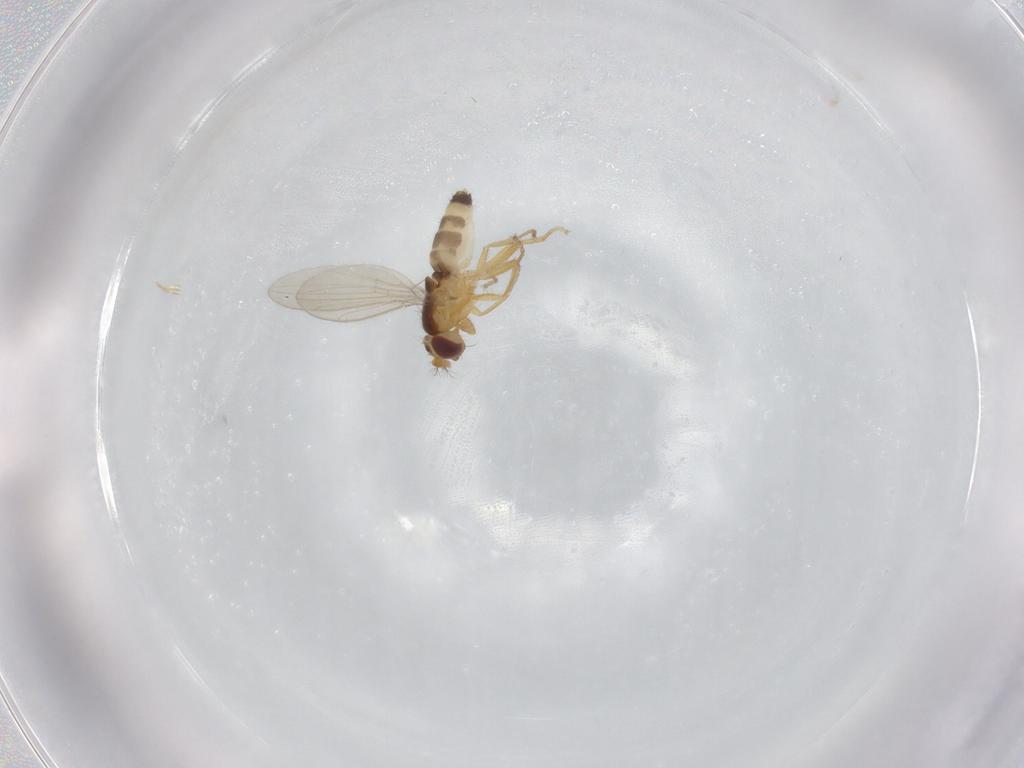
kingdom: Animalia
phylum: Arthropoda
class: Insecta
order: Diptera
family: Periscelididae
